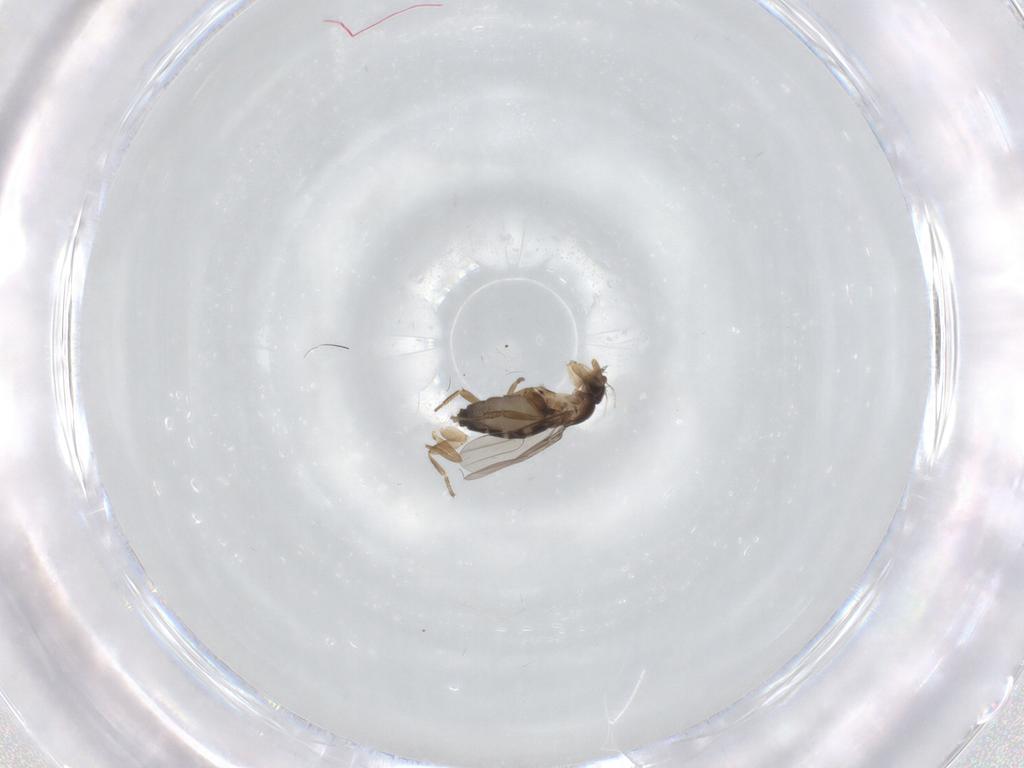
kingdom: Animalia
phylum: Arthropoda
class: Insecta
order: Diptera
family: Phoridae
